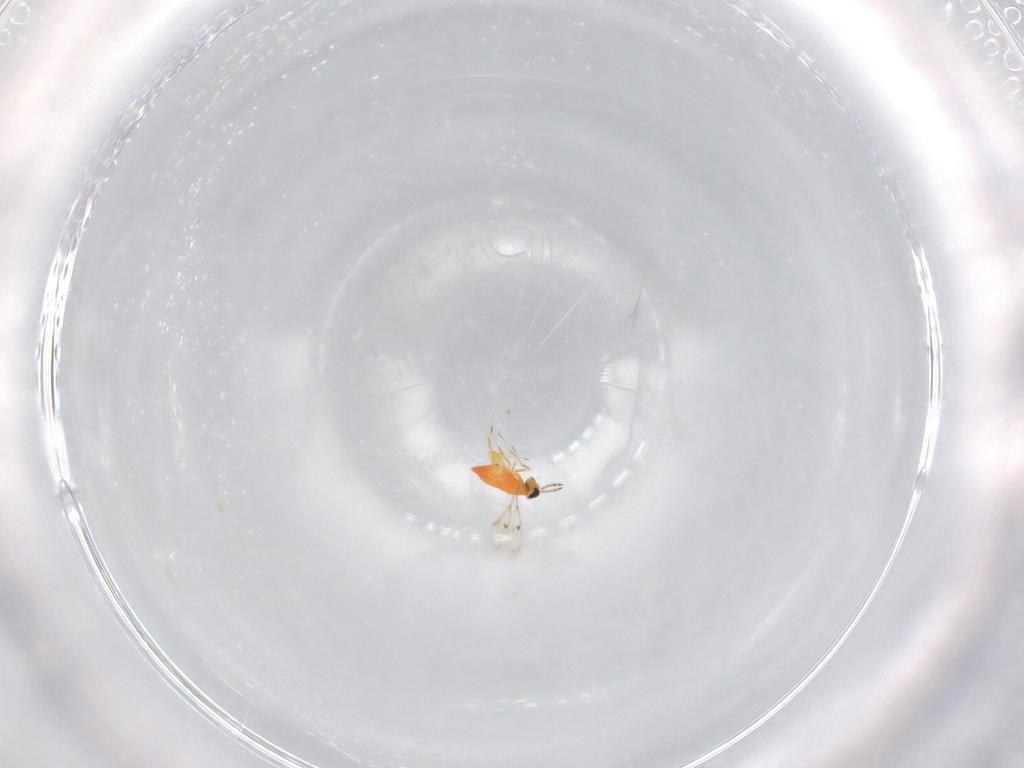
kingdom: Animalia
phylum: Arthropoda
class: Insecta
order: Hymenoptera
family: Trichogrammatidae
